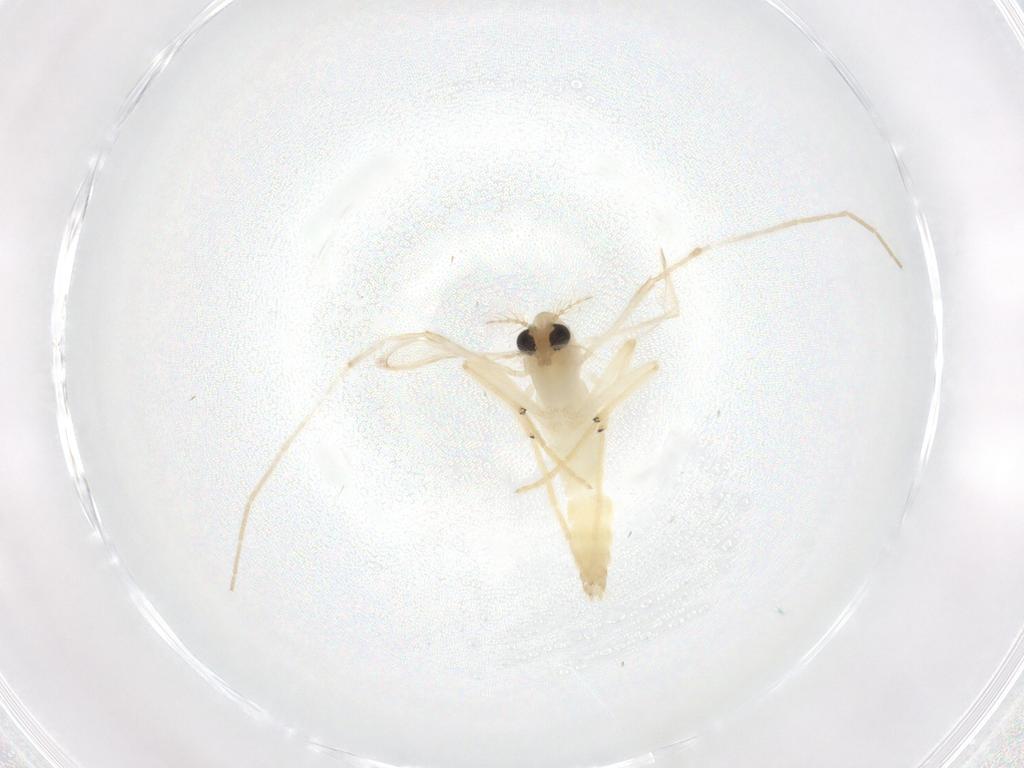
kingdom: Animalia
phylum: Arthropoda
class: Insecta
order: Diptera
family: Chironomidae
